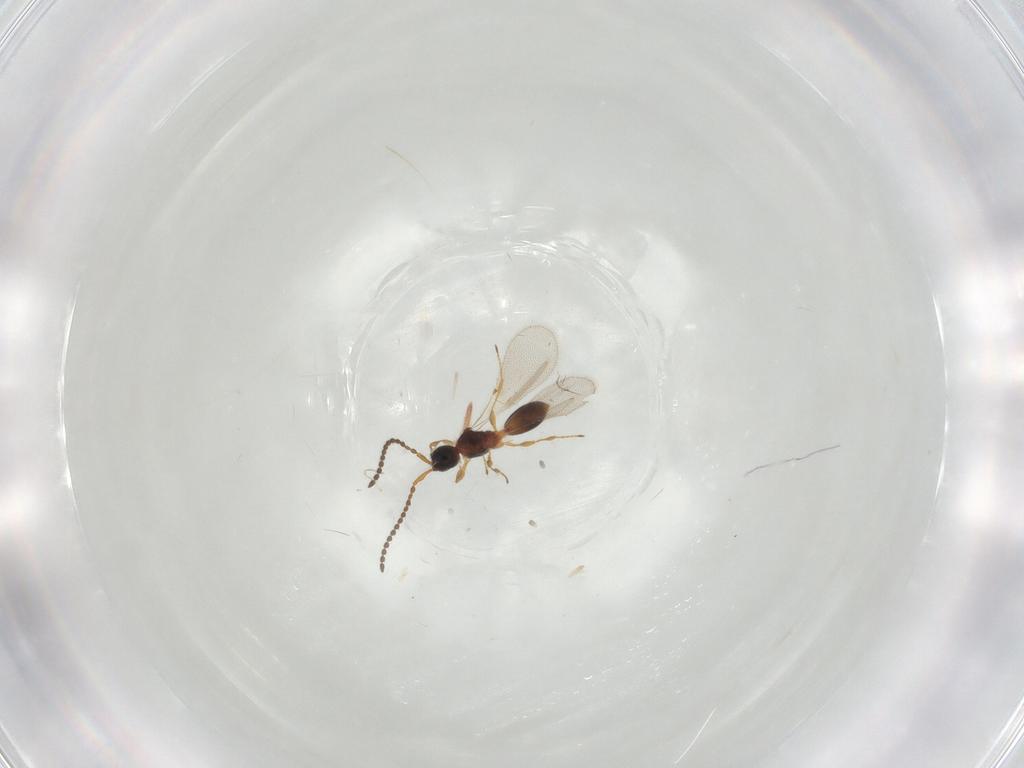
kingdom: Animalia
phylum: Arthropoda
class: Insecta
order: Hymenoptera
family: Diapriidae
